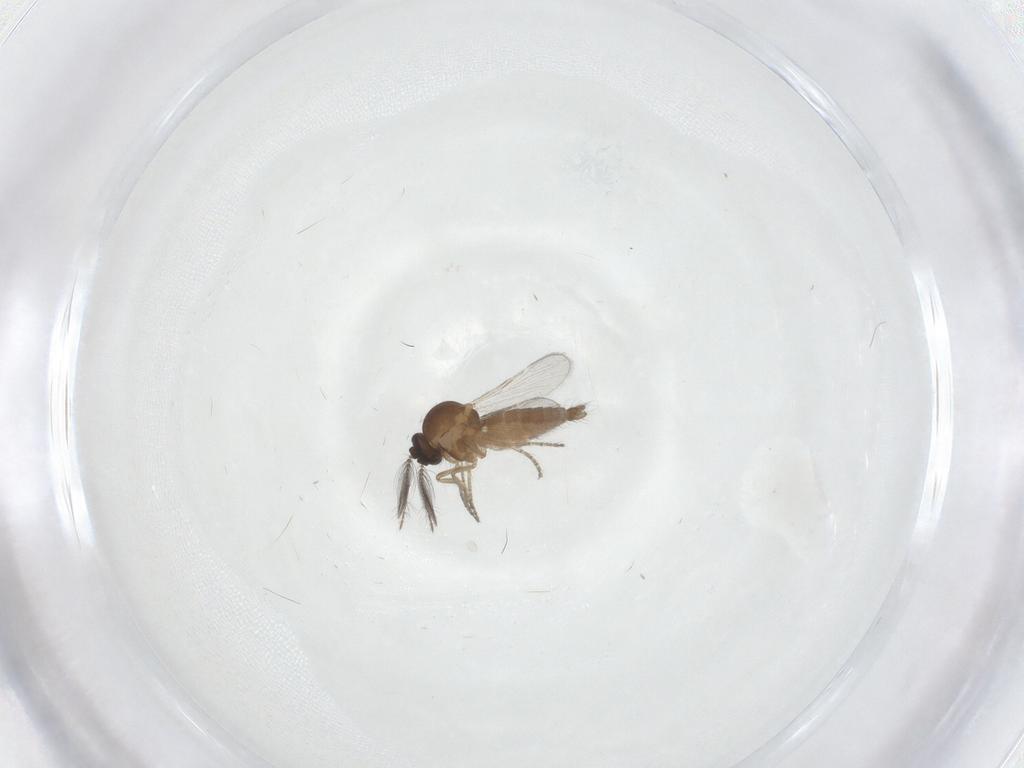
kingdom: Animalia
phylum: Arthropoda
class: Insecta
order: Diptera
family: Ceratopogonidae
